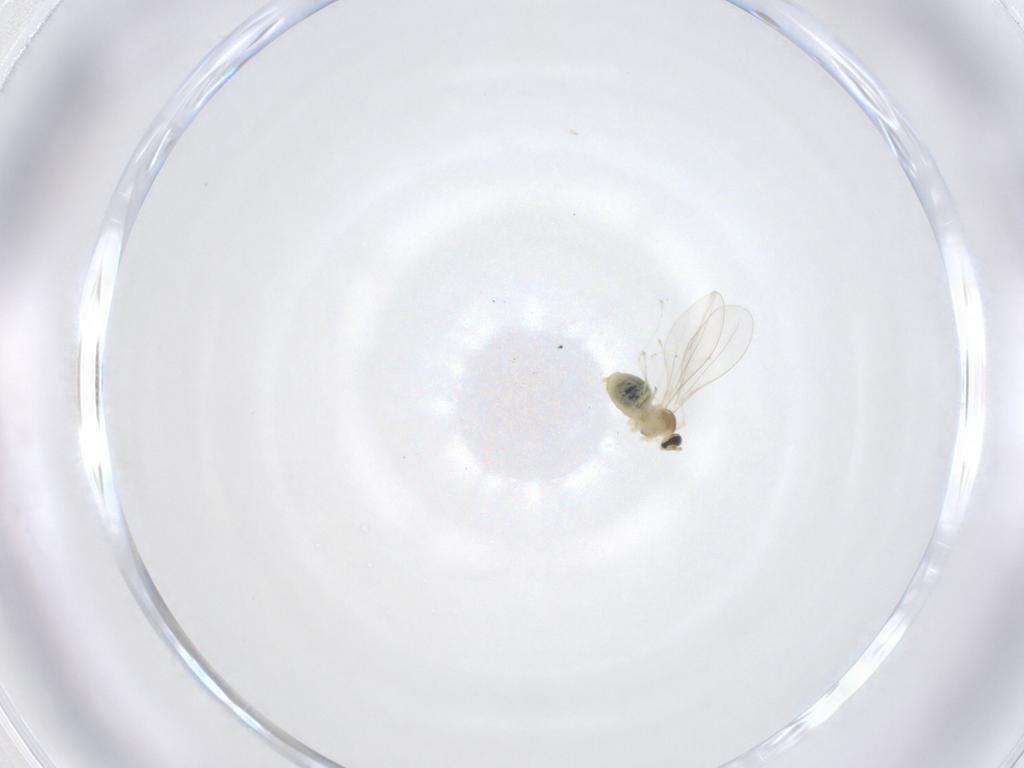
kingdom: Animalia
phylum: Arthropoda
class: Insecta
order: Diptera
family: Cecidomyiidae
